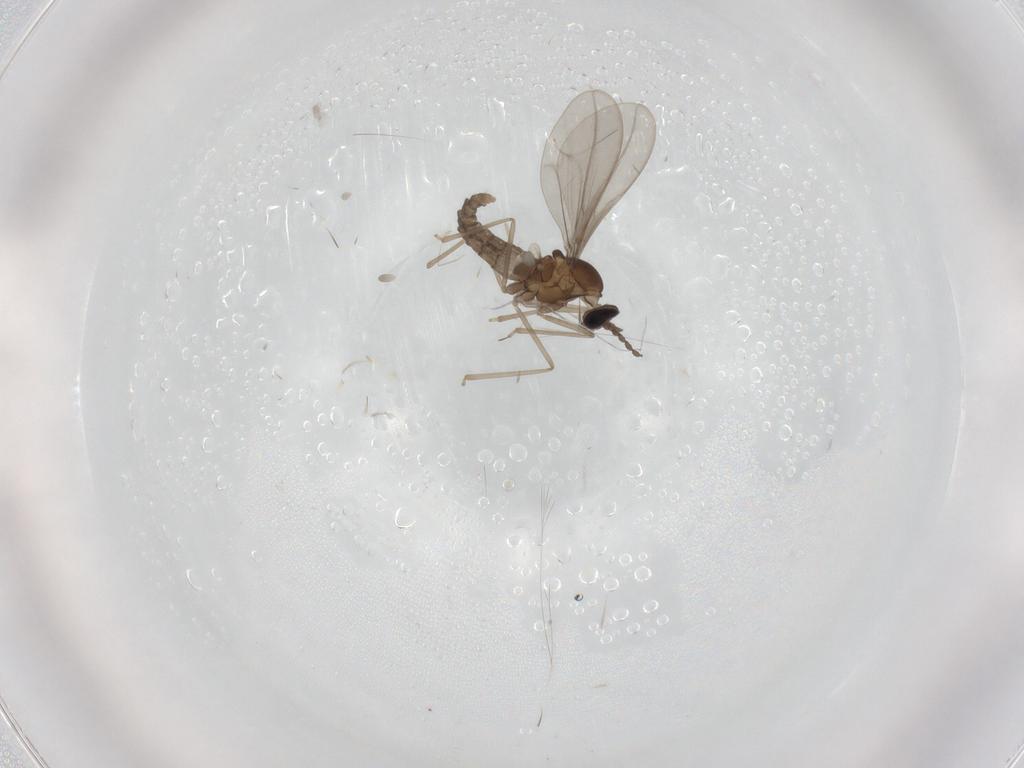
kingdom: Animalia
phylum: Arthropoda
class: Insecta
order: Diptera
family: Cecidomyiidae
